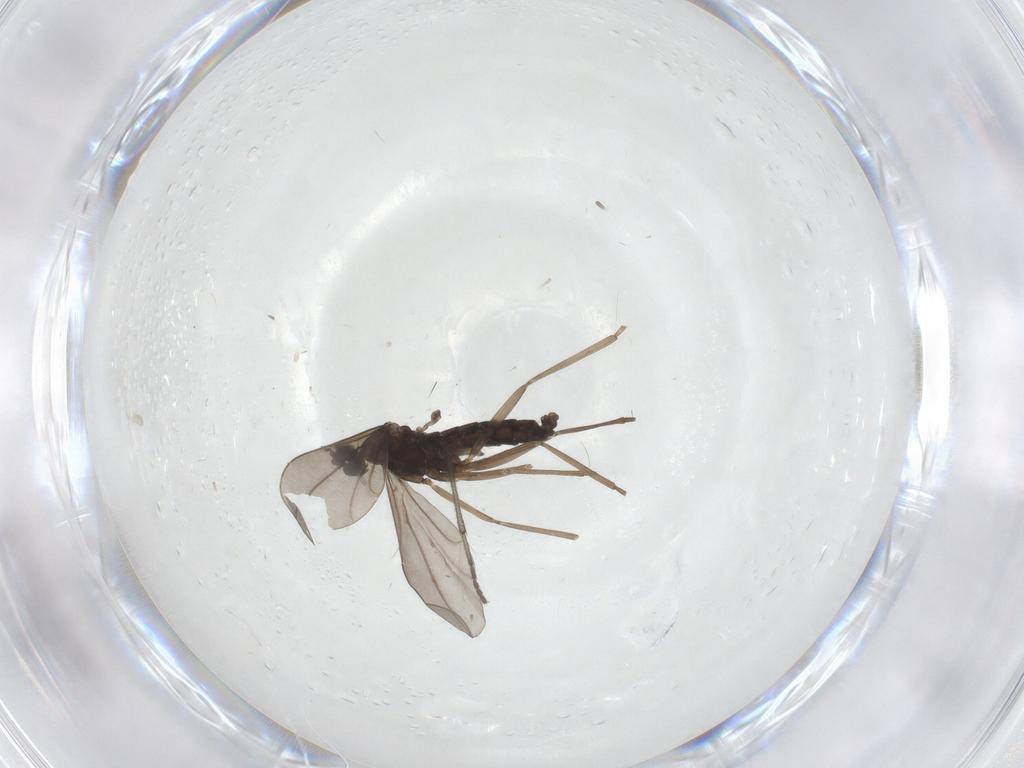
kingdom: Animalia
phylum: Arthropoda
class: Insecta
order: Diptera
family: Sciaridae
